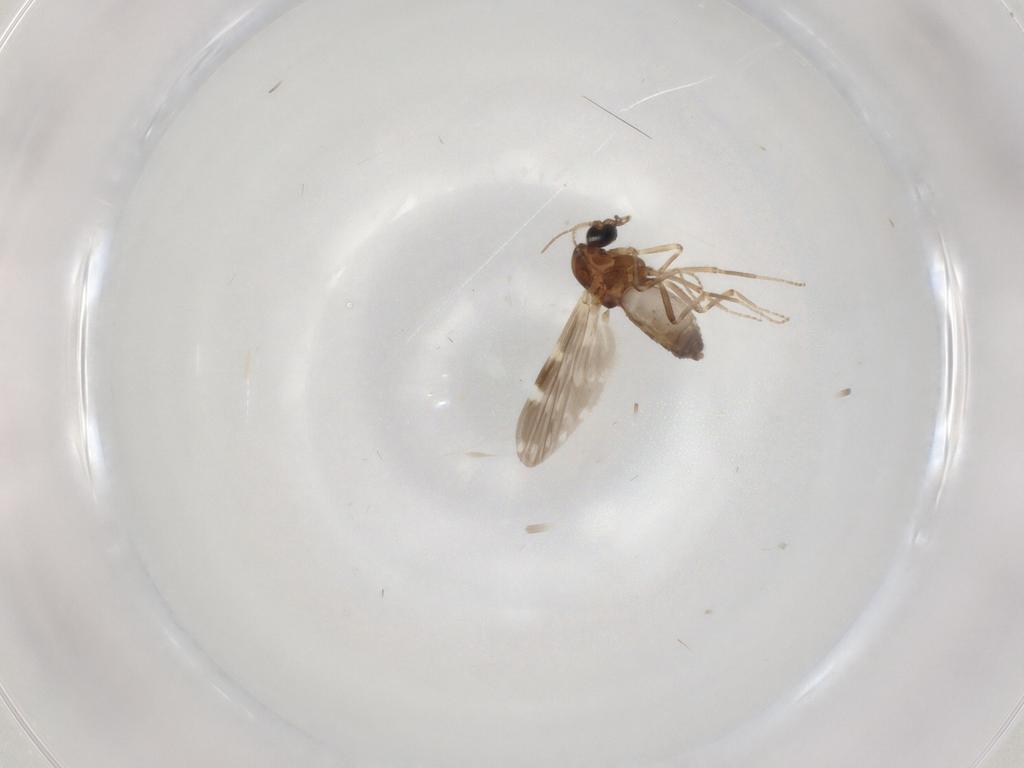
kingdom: Animalia
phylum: Arthropoda
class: Insecta
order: Diptera
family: Ceratopogonidae
